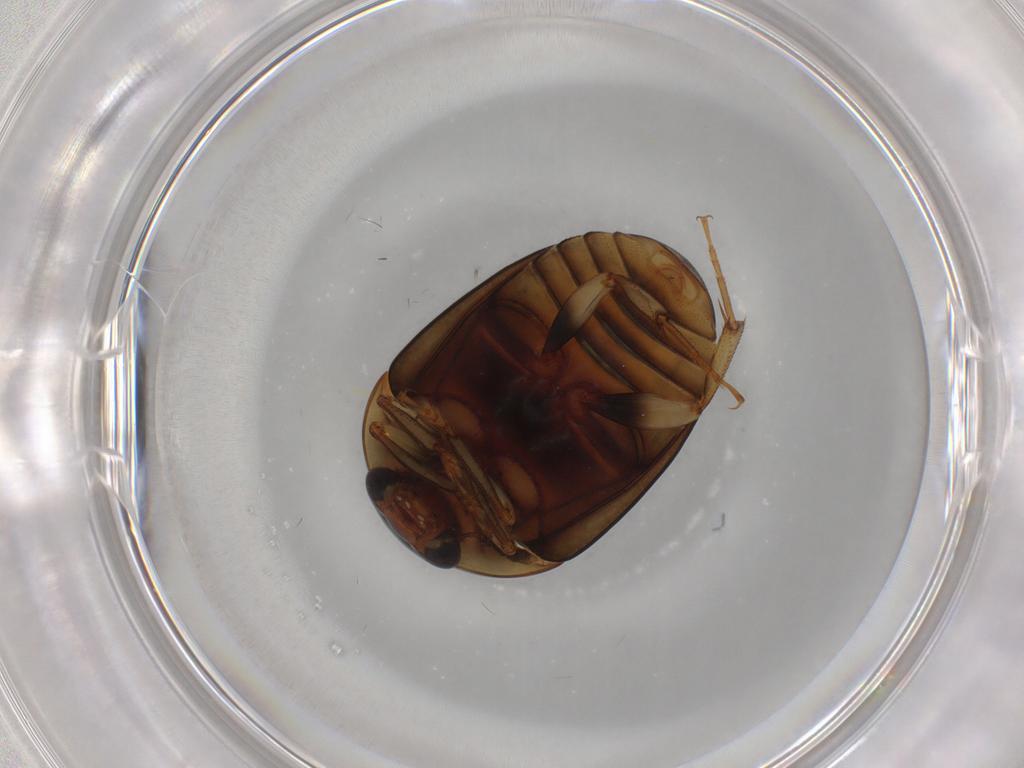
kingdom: Animalia
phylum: Arthropoda
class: Insecta
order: Coleoptera
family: Nitidulidae
